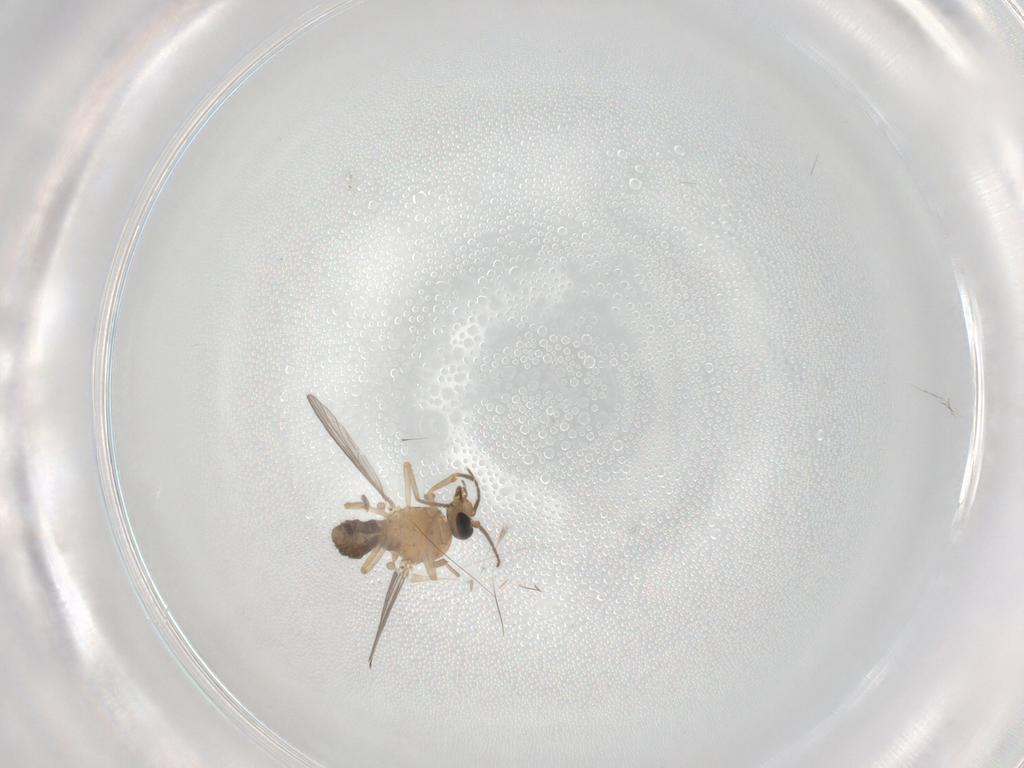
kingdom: Animalia
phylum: Arthropoda
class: Insecta
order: Diptera
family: Ceratopogonidae
